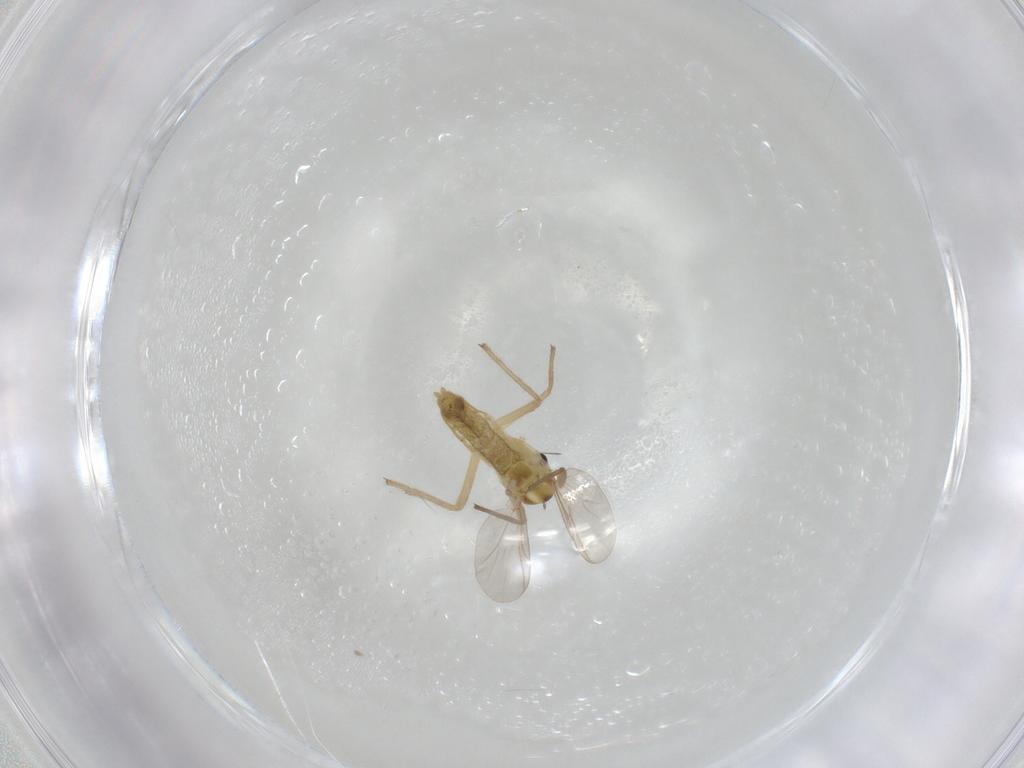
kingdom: Animalia
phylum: Arthropoda
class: Insecta
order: Diptera
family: Chironomidae
